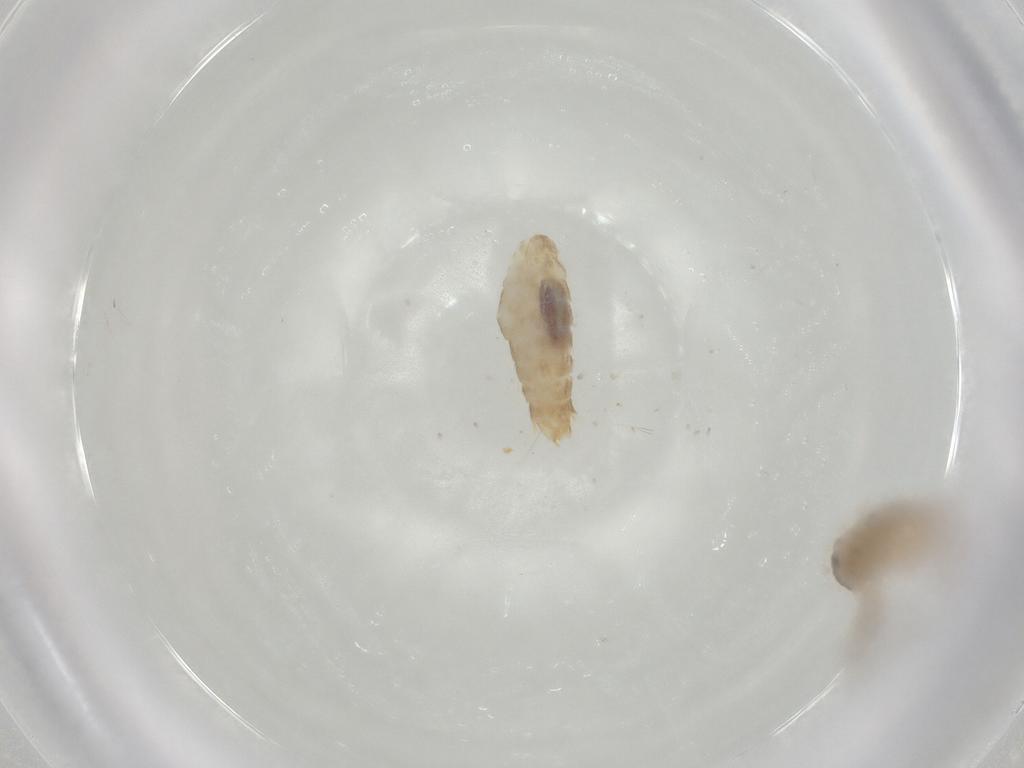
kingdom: Animalia
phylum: Arthropoda
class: Insecta
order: Lepidoptera
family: Bucculatricidae
